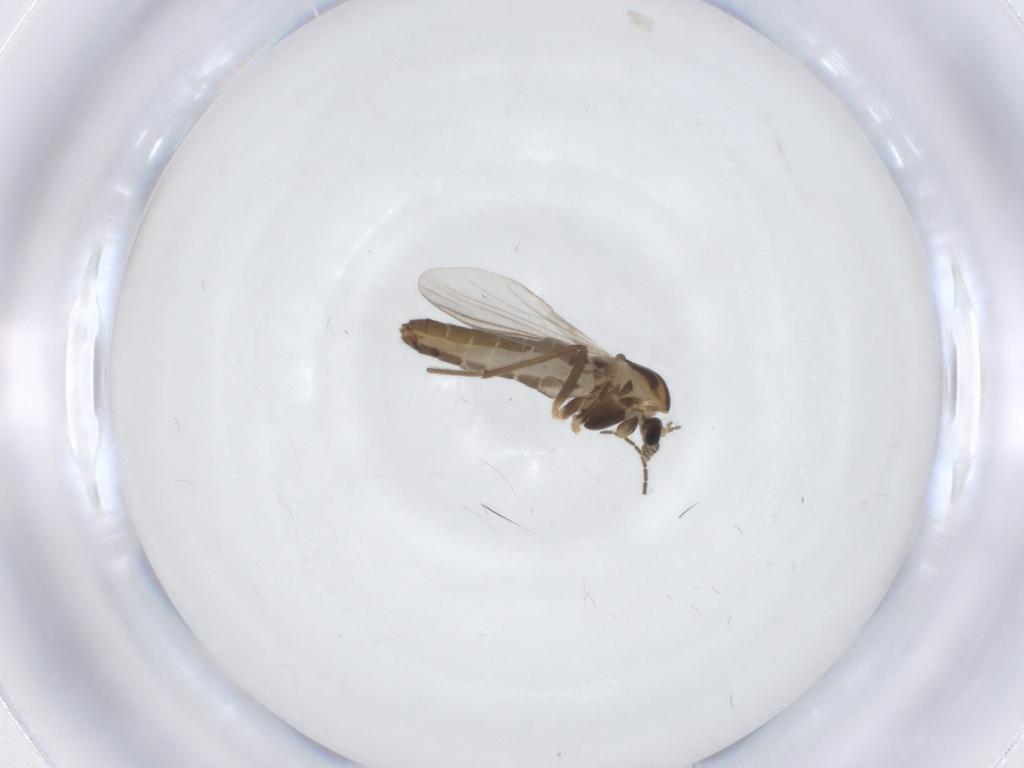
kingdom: Animalia
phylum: Arthropoda
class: Insecta
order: Diptera
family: Chironomidae
